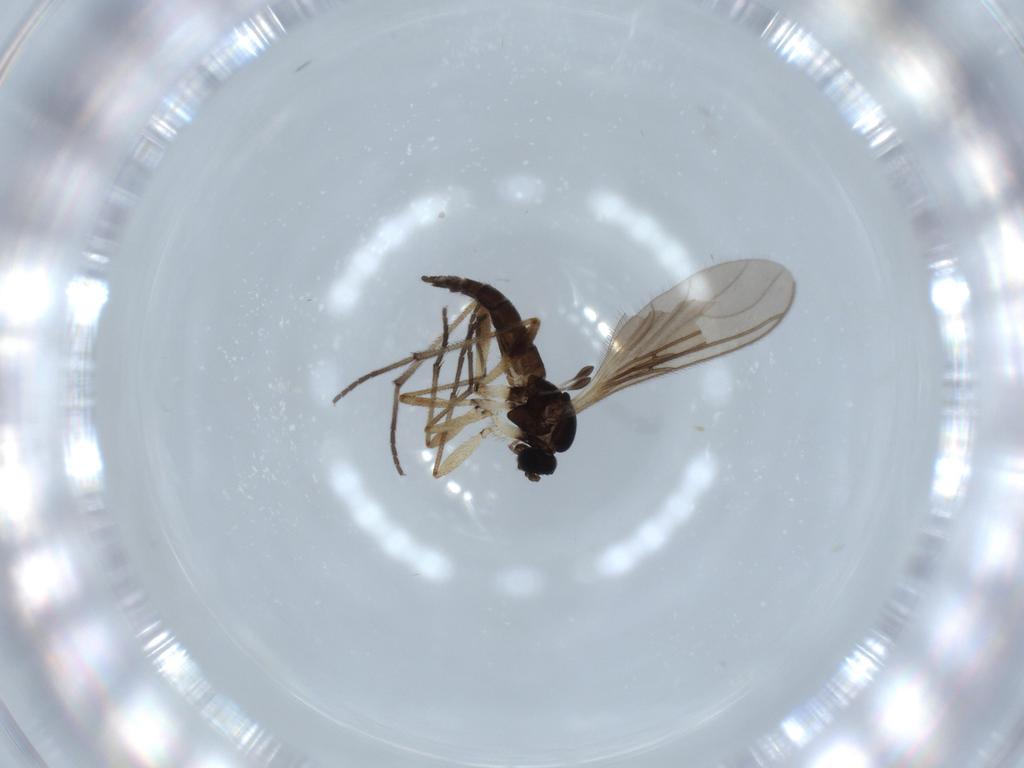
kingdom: Animalia
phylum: Arthropoda
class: Insecta
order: Diptera
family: Sciaridae
